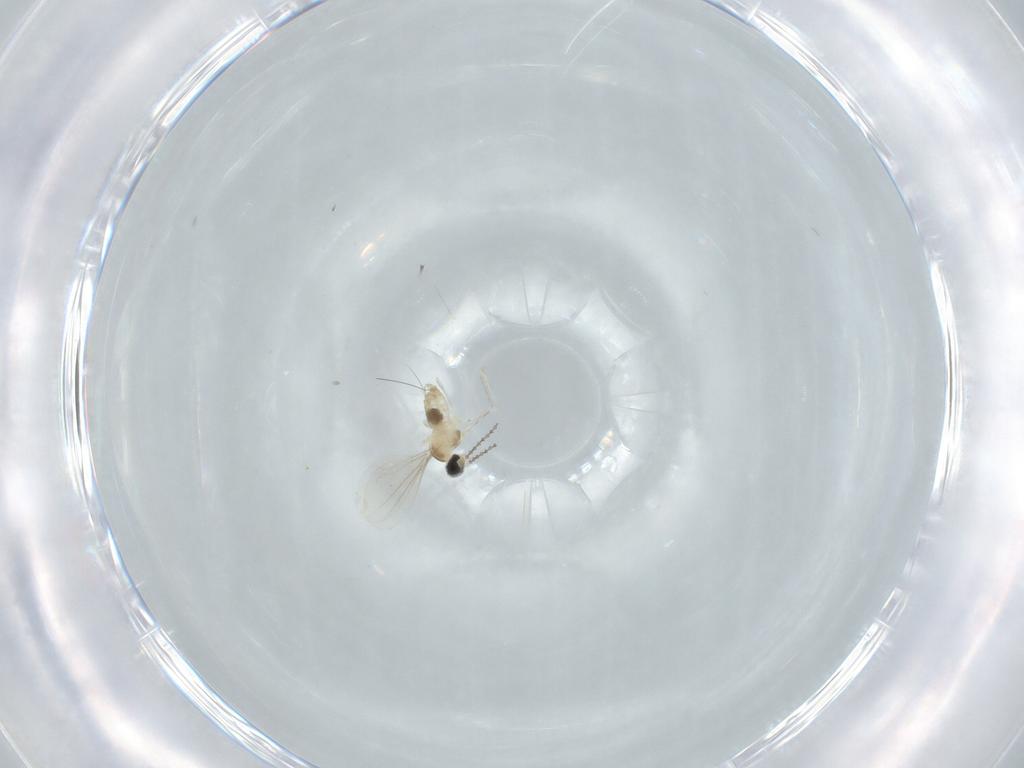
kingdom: Animalia
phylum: Arthropoda
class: Insecta
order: Diptera
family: Cecidomyiidae
